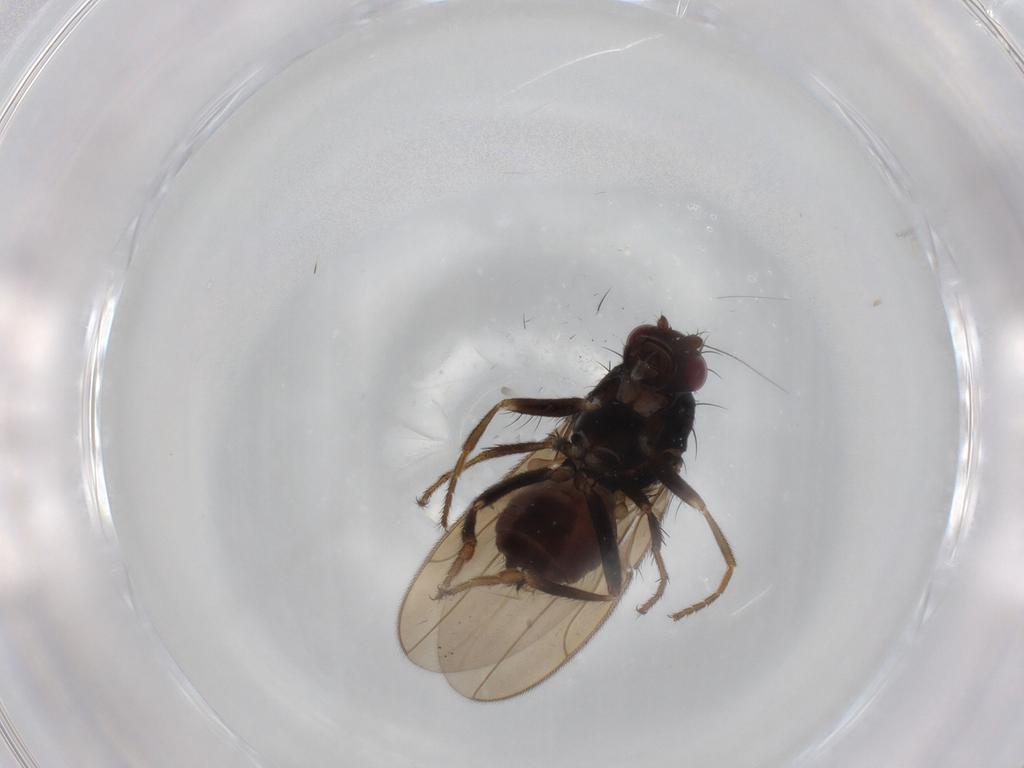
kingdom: Animalia
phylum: Arthropoda
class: Insecta
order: Diptera
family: Sphaeroceridae
